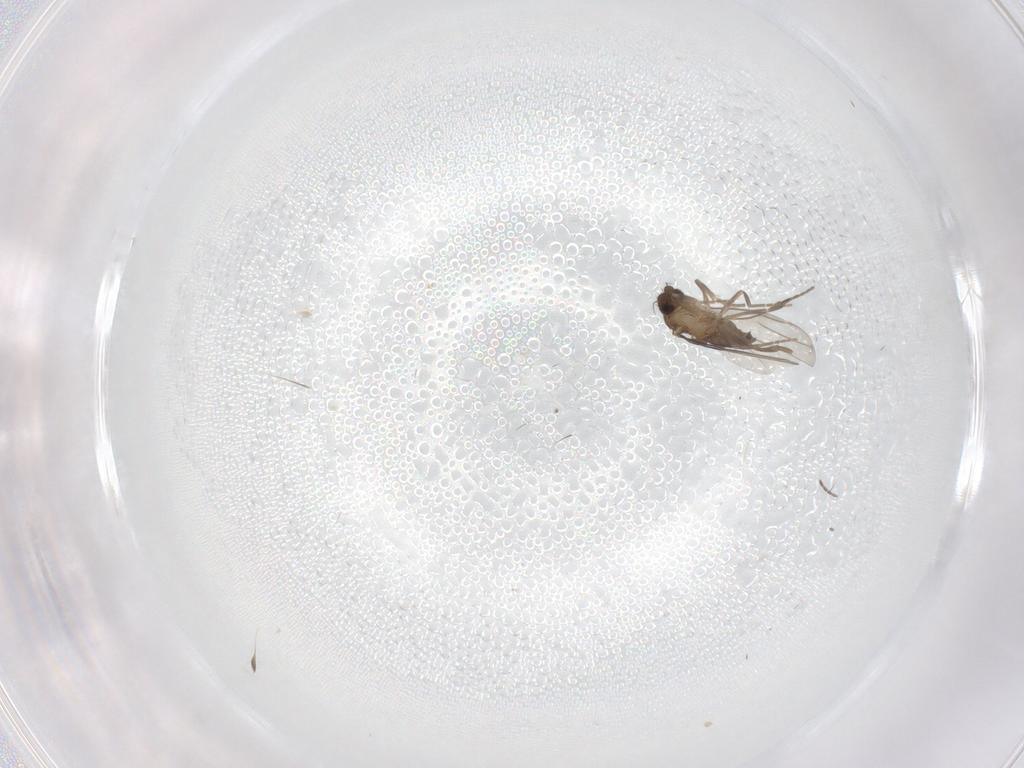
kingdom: Animalia
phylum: Arthropoda
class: Insecta
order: Diptera
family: Cecidomyiidae
